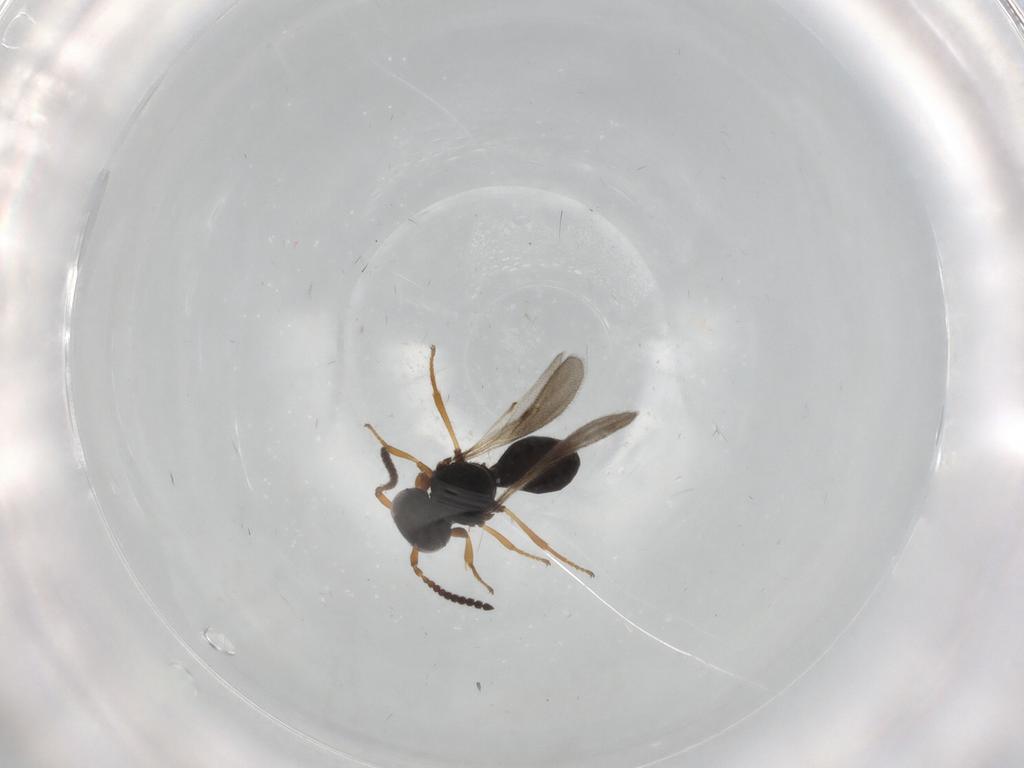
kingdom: Animalia
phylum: Arthropoda
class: Insecta
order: Hymenoptera
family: Scelionidae
